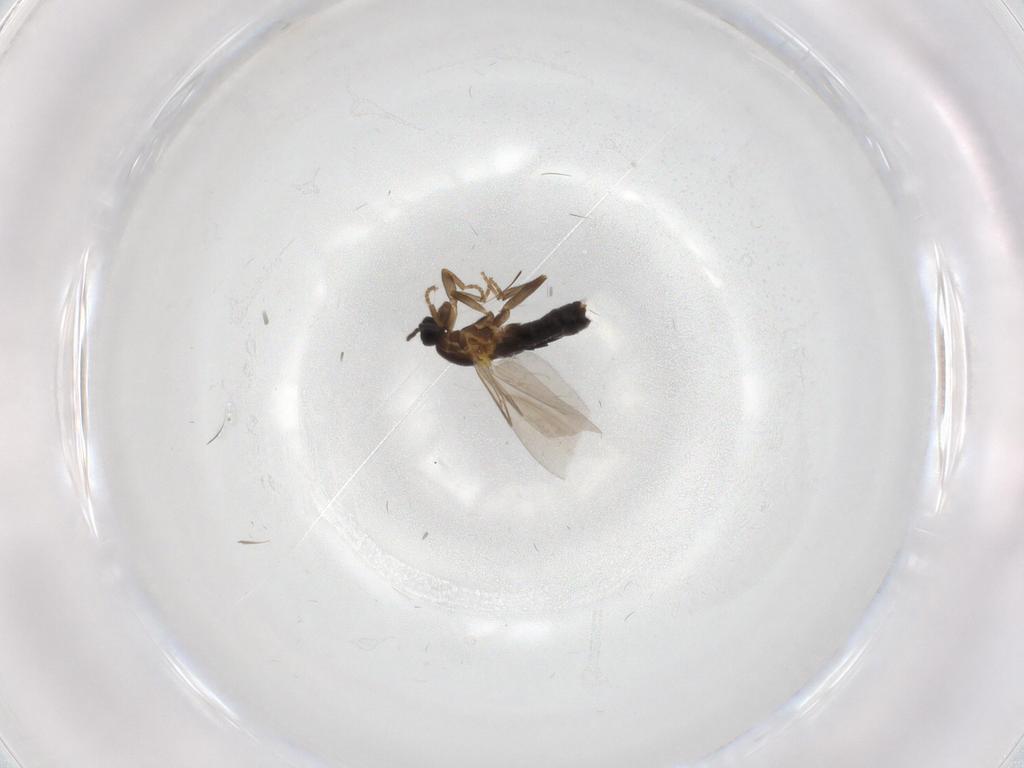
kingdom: Animalia
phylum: Arthropoda
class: Insecta
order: Diptera
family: Scatopsidae
